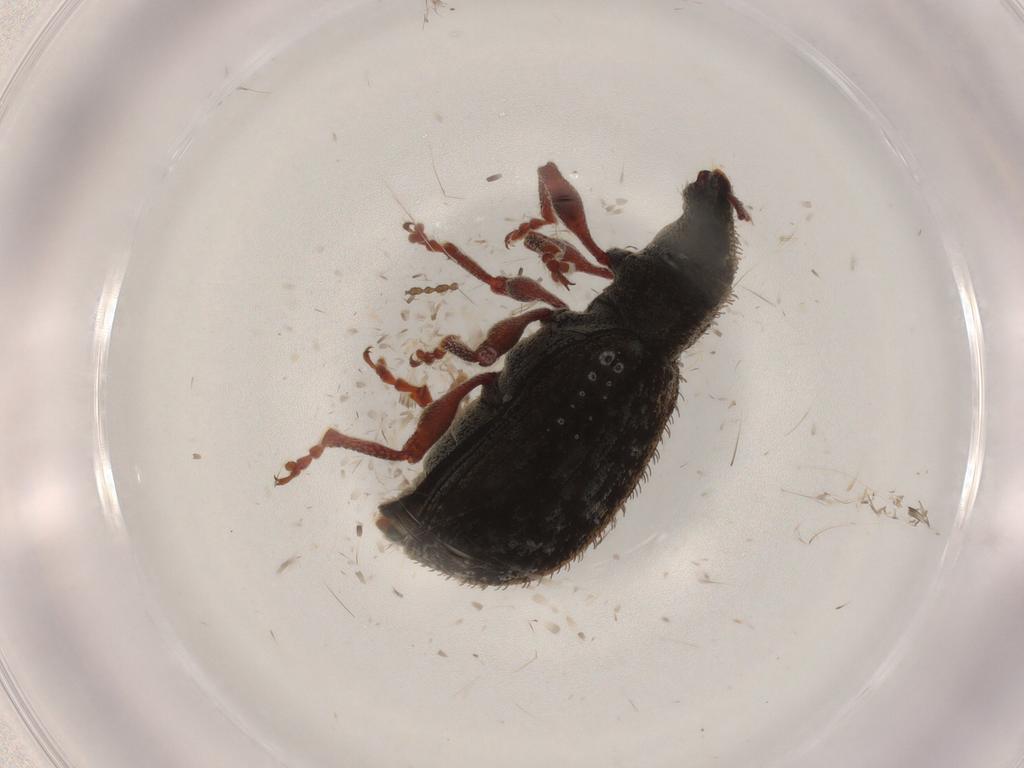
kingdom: Animalia
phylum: Arthropoda
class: Insecta
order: Coleoptera
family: Curculionidae
